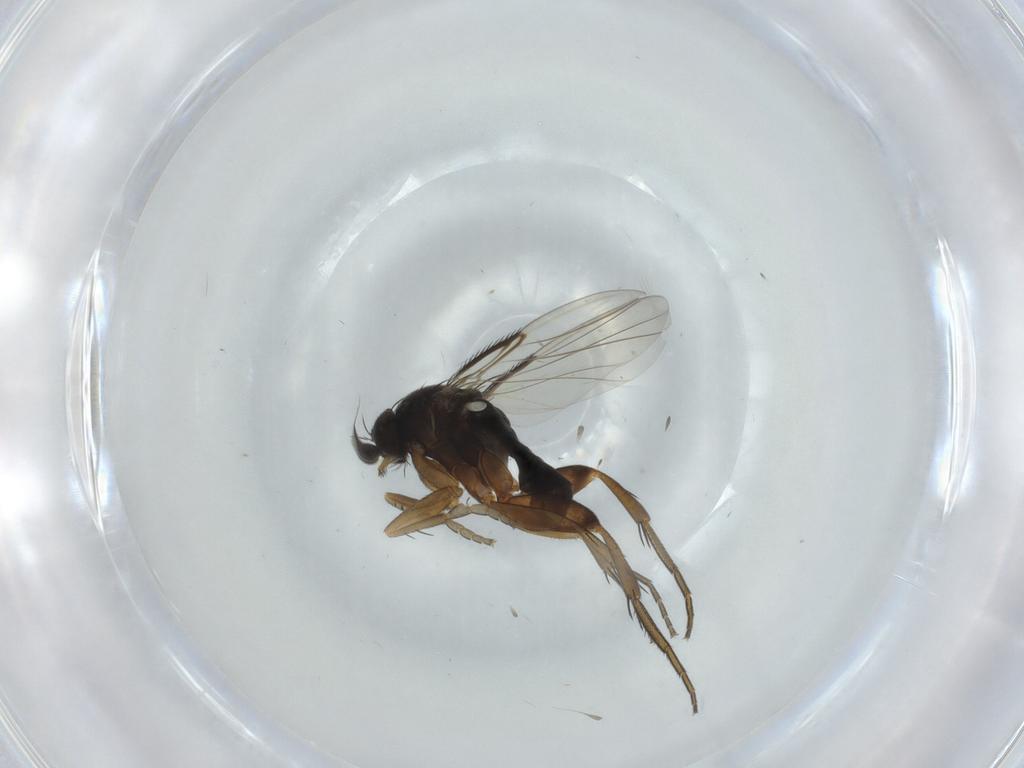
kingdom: Animalia
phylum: Arthropoda
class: Insecta
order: Diptera
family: Phoridae
